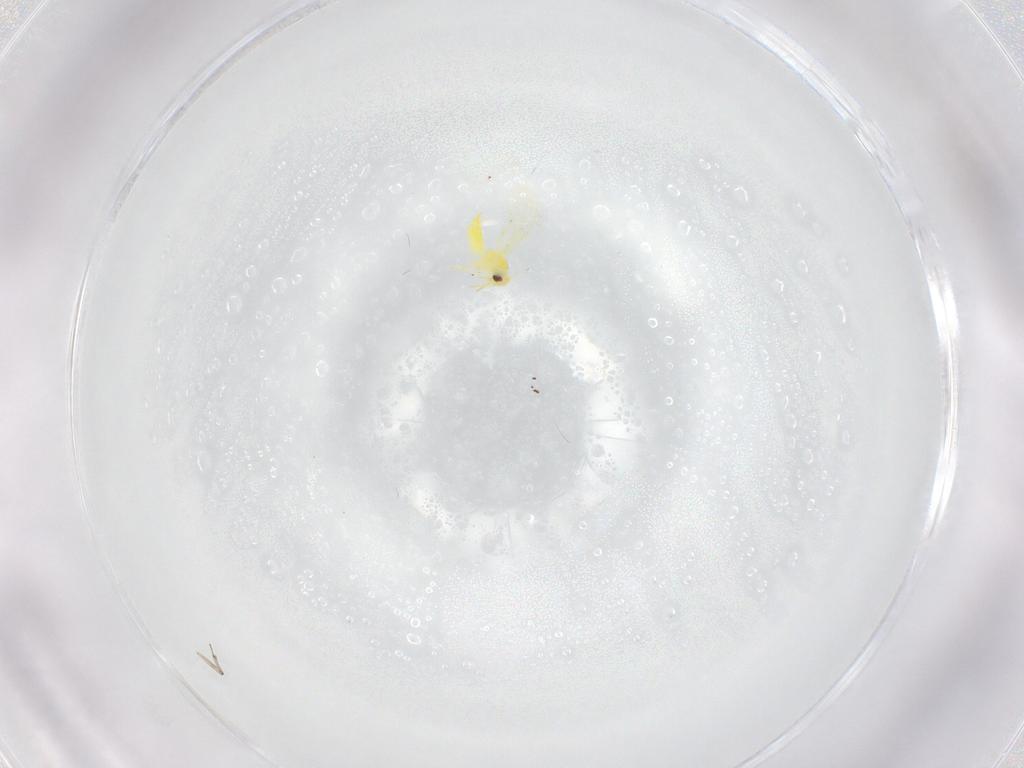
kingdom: Animalia
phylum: Arthropoda
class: Insecta
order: Hemiptera
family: Aleyrodidae
